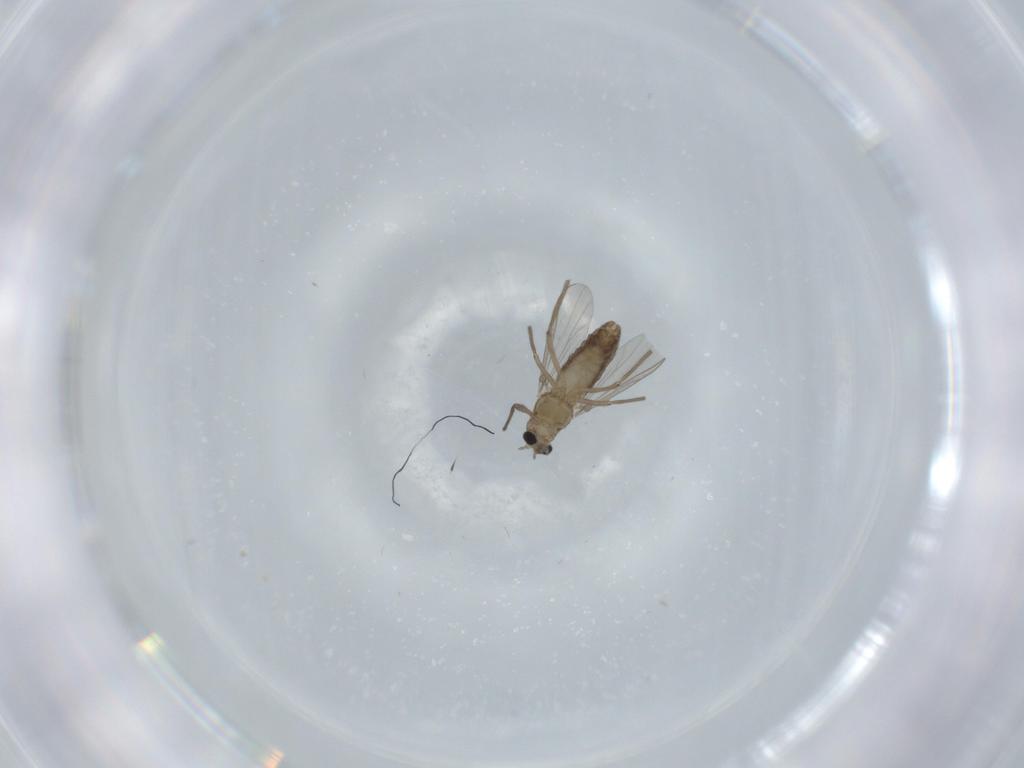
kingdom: Animalia
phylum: Arthropoda
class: Insecta
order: Diptera
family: Chironomidae
